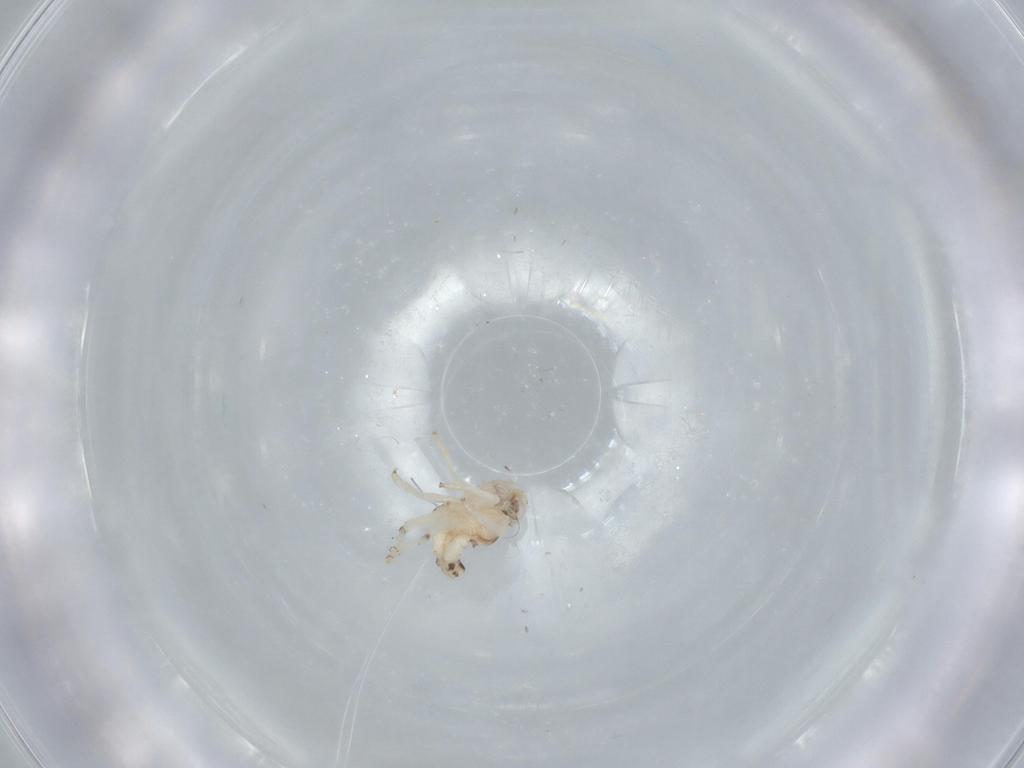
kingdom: Animalia
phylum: Arthropoda
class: Insecta
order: Hemiptera
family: Nogodinidae
